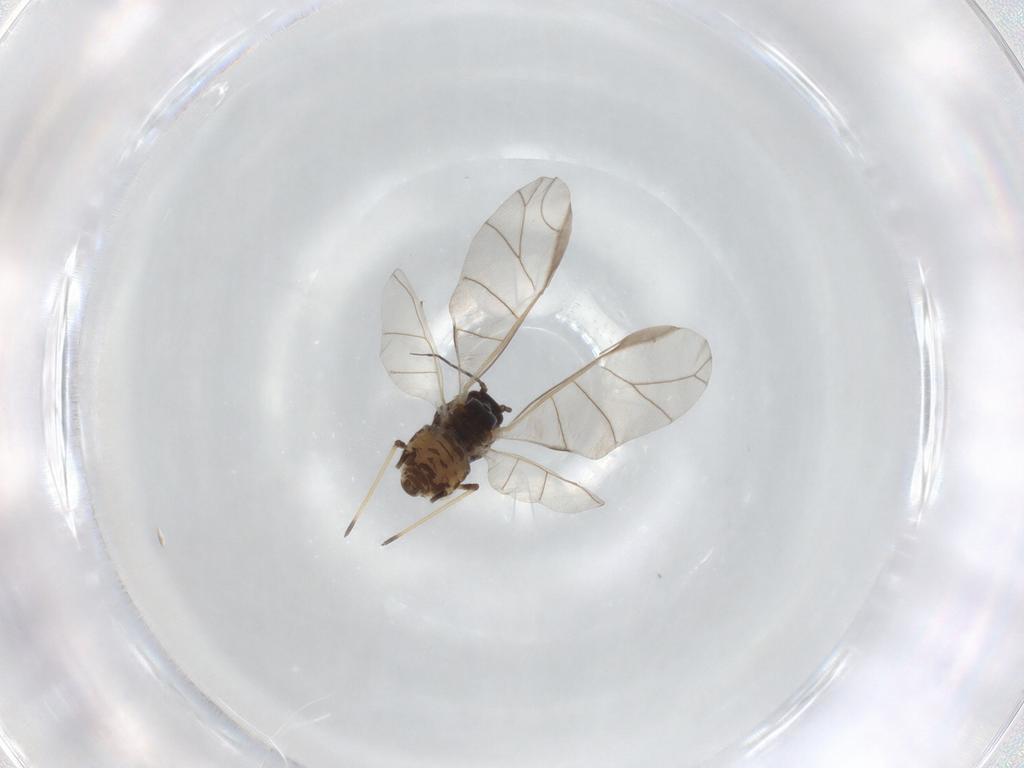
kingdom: Animalia
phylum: Arthropoda
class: Insecta
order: Hemiptera
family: Aphididae
